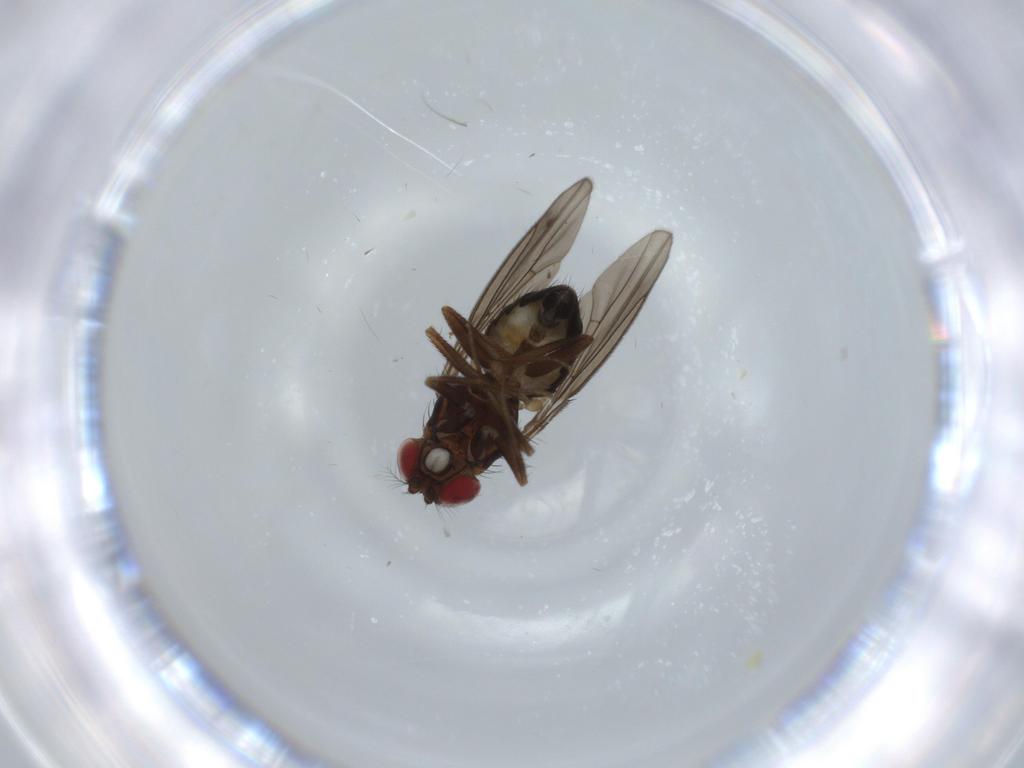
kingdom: Animalia
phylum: Arthropoda
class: Insecta
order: Diptera
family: Drosophilidae
